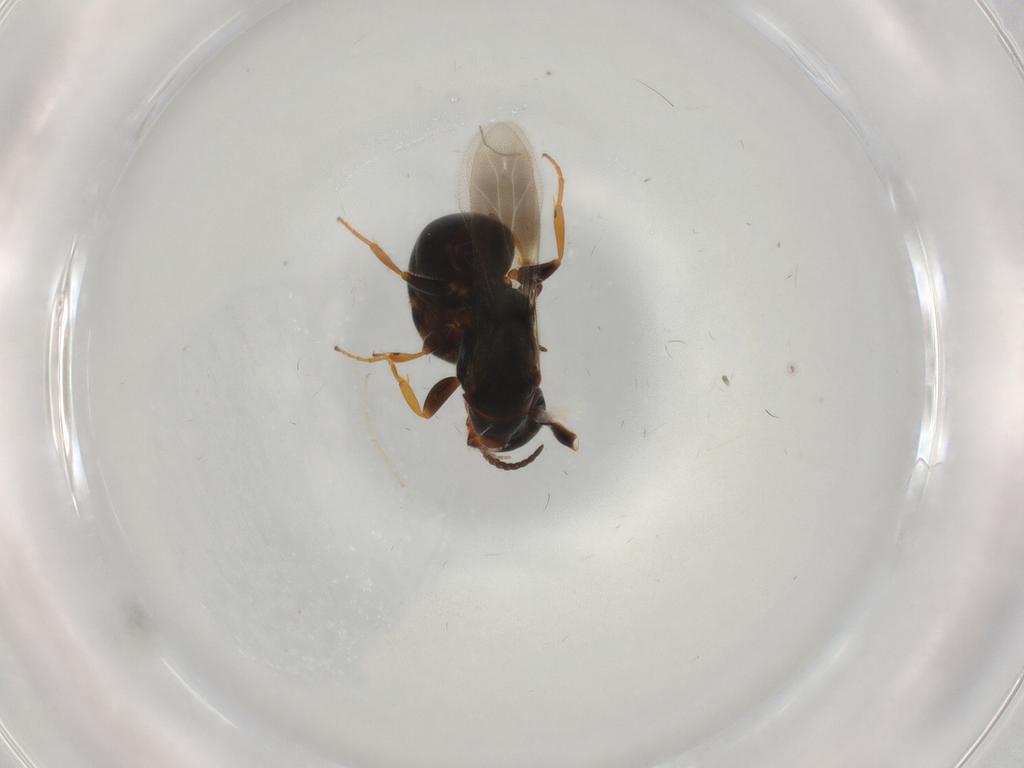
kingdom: Animalia
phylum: Arthropoda
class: Insecta
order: Hymenoptera
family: Bethylidae
